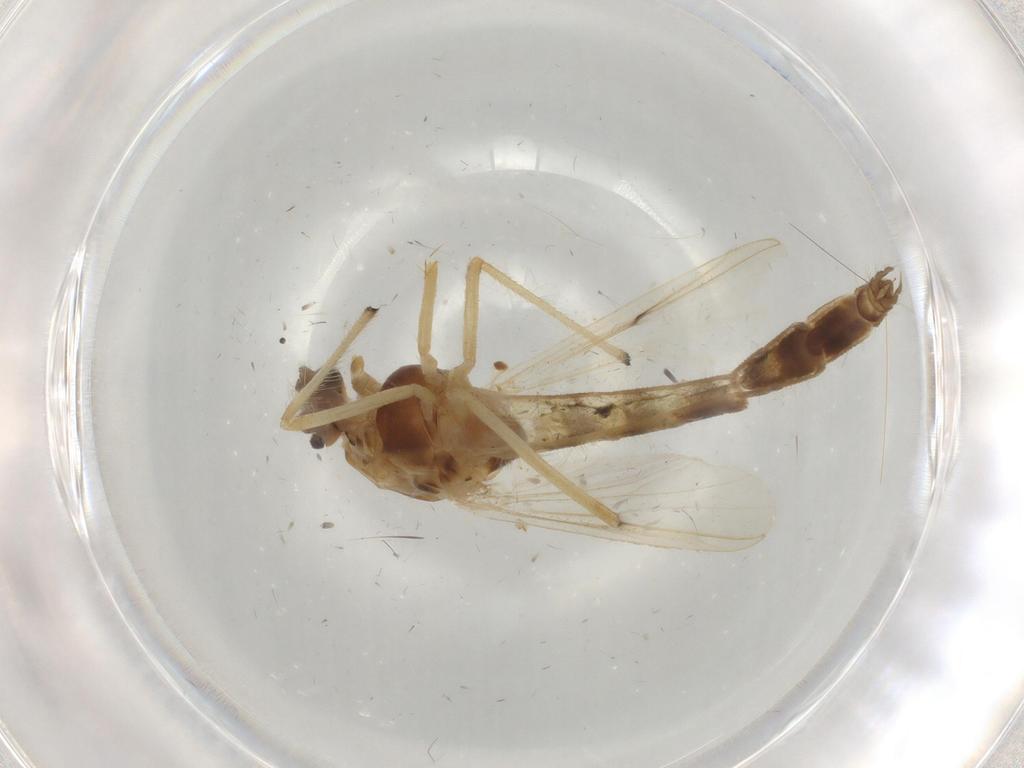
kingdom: Animalia
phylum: Arthropoda
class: Insecta
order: Diptera
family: Chironomidae
